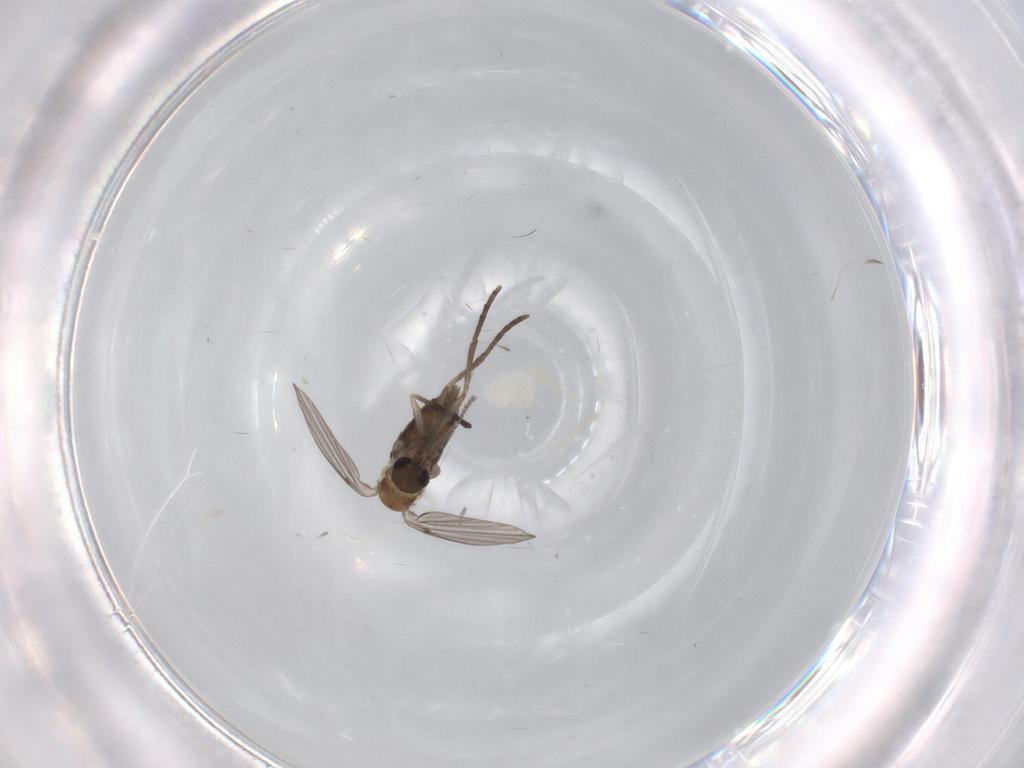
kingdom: Animalia
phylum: Arthropoda
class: Insecta
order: Diptera
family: Psychodidae
